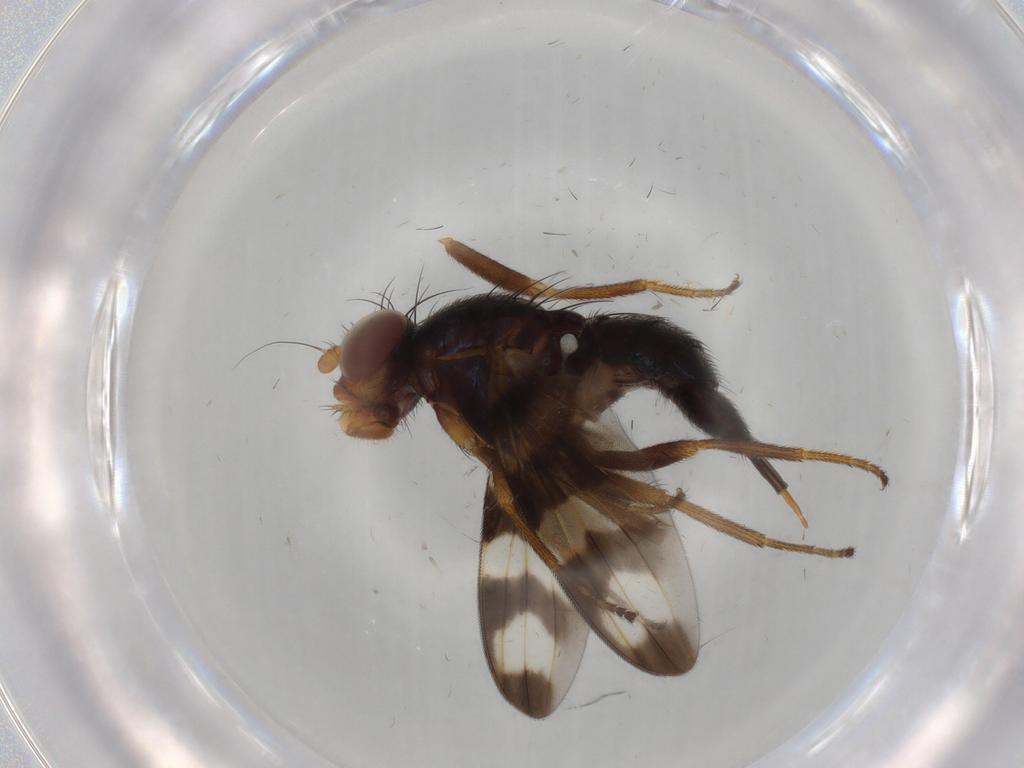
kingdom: Animalia
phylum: Arthropoda
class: Insecta
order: Diptera
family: Ulidiidae
